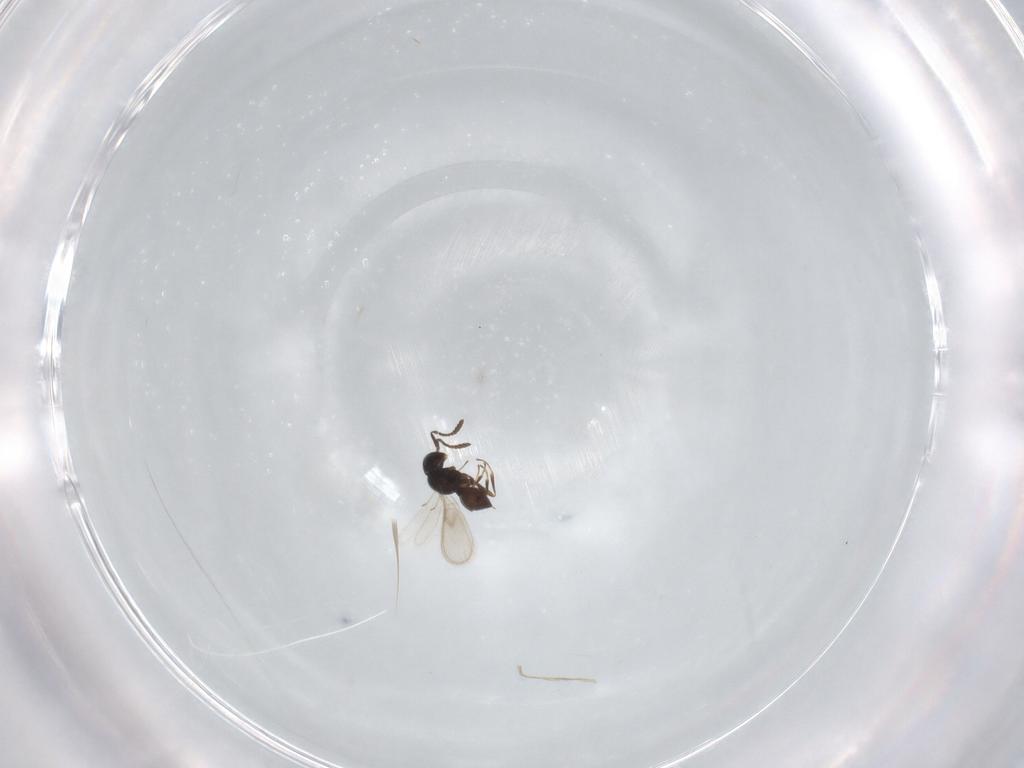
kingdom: Animalia
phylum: Arthropoda
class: Insecta
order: Hymenoptera
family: Scelionidae
